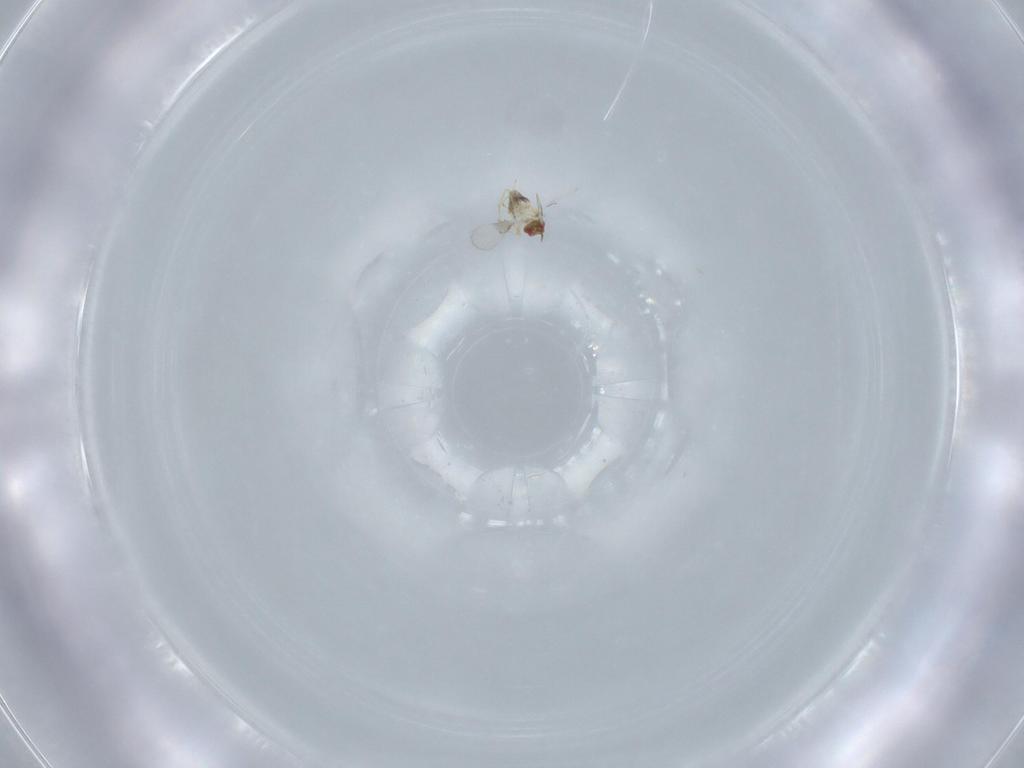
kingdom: Animalia
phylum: Arthropoda
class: Insecta
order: Hymenoptera
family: Trichogrammatidae
